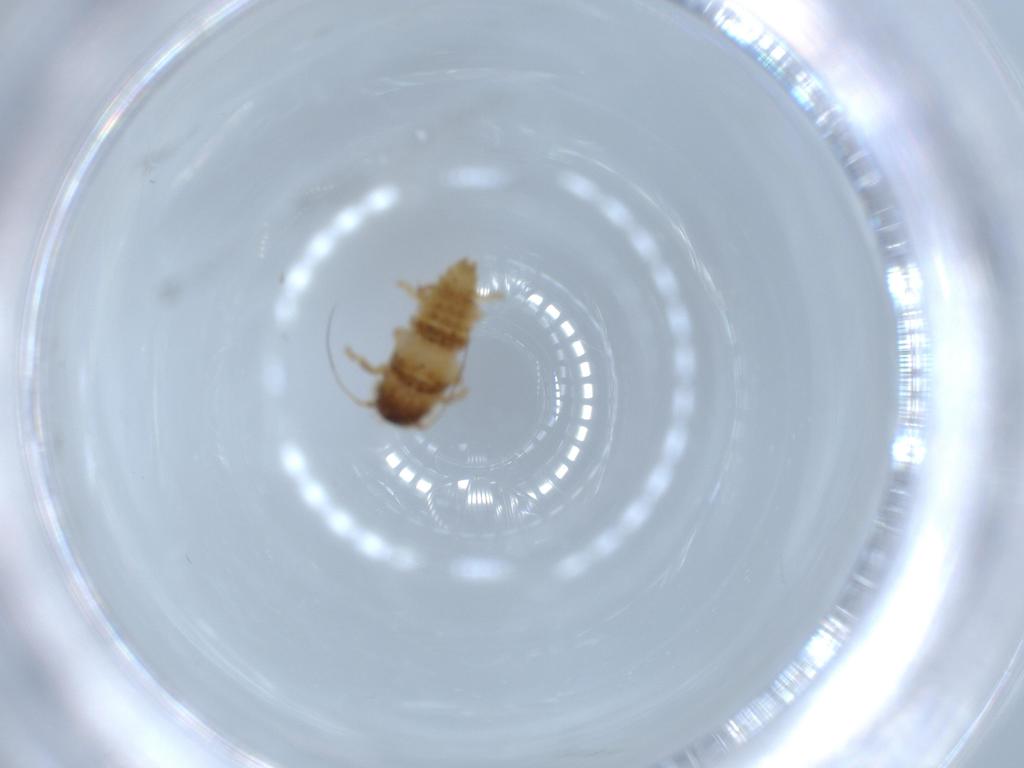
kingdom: Animalia
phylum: Arthropoda
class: Insecta
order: Hemiptera
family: Cicadellidae
